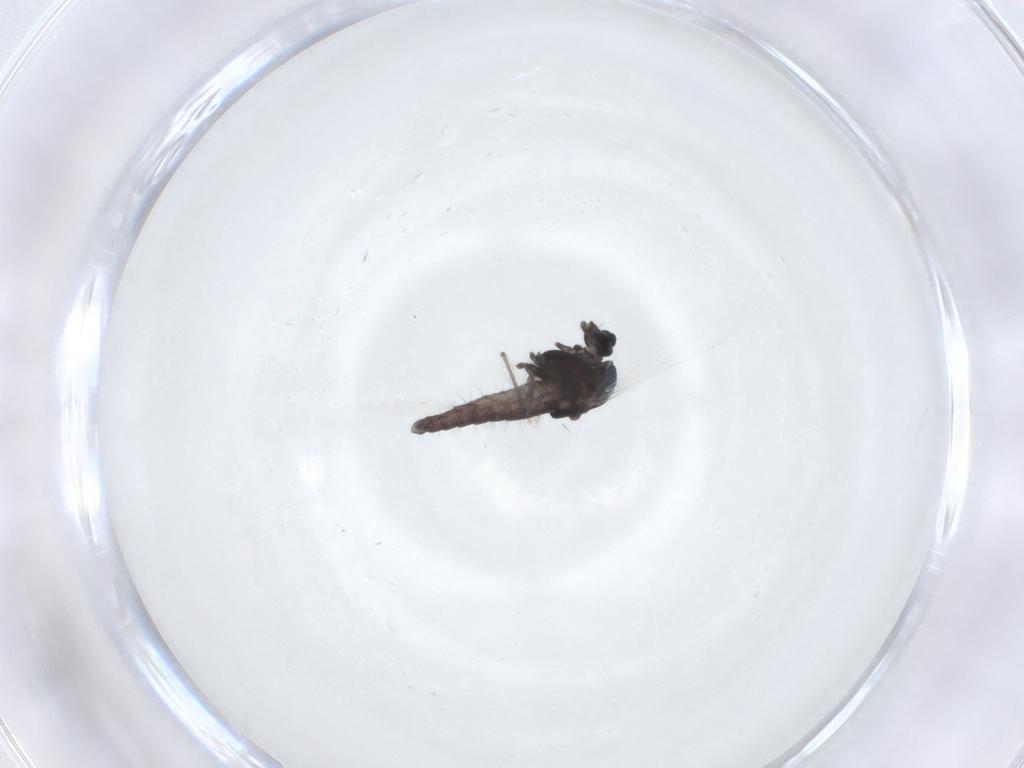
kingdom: Animalia
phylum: Arthropoda
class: Insecta
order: Diptera
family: Chironomidae
